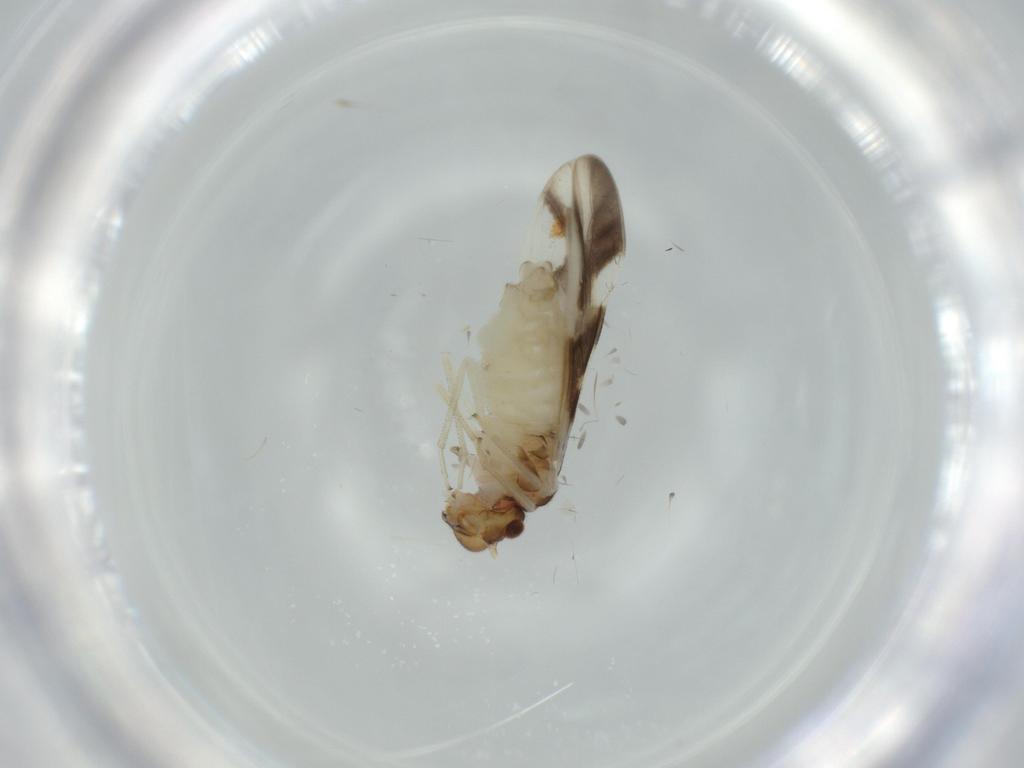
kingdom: Animalia
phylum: Arthropoda
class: Insecta
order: Psocodea
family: Caeciliusidae
